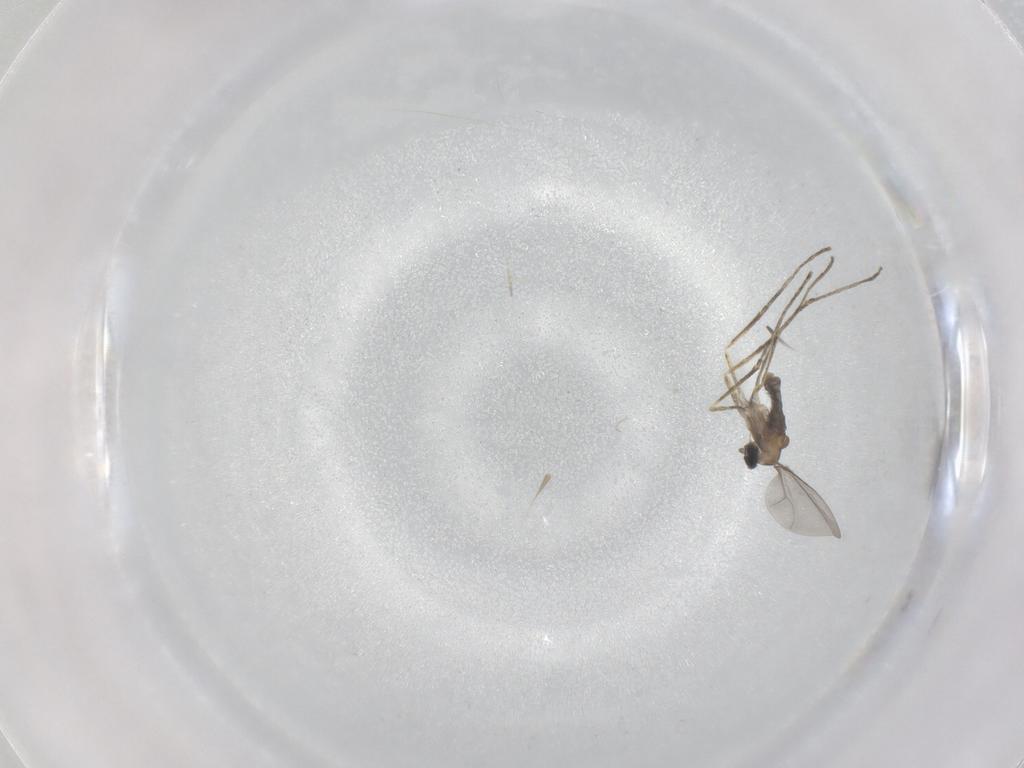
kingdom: Animalia
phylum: Arthropoda
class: Insecta
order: Diptera
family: Cecidomyiidae
